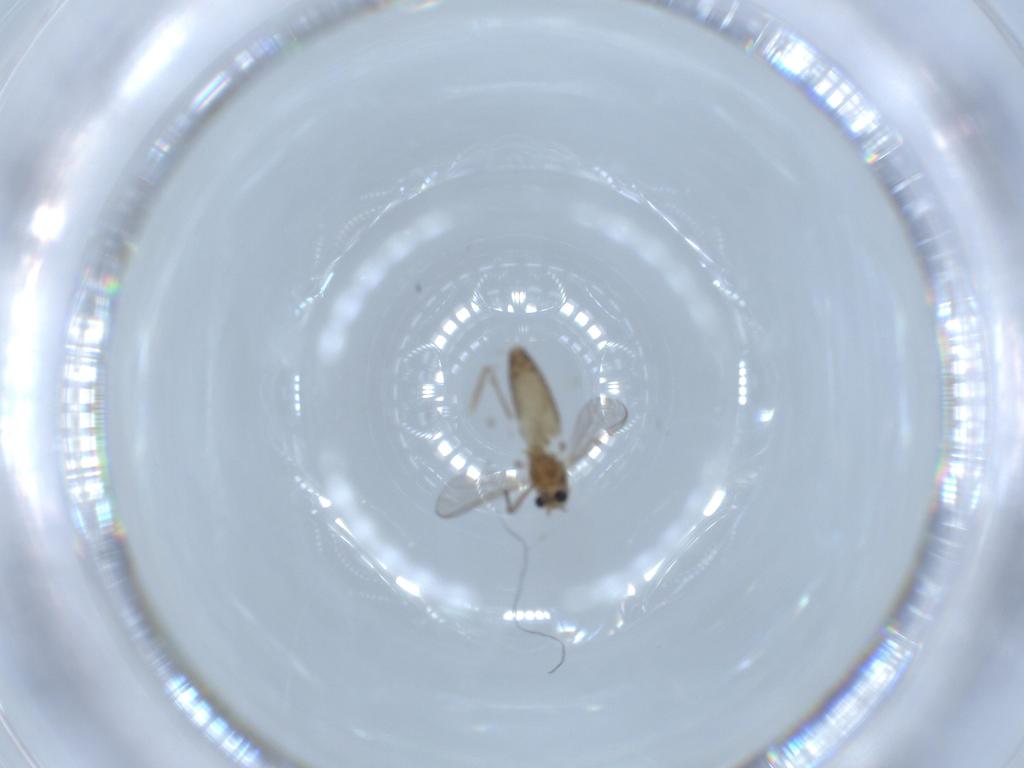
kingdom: Animalia
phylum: Arthropoda
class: Insecta
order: Diptera
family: Chironomidae
